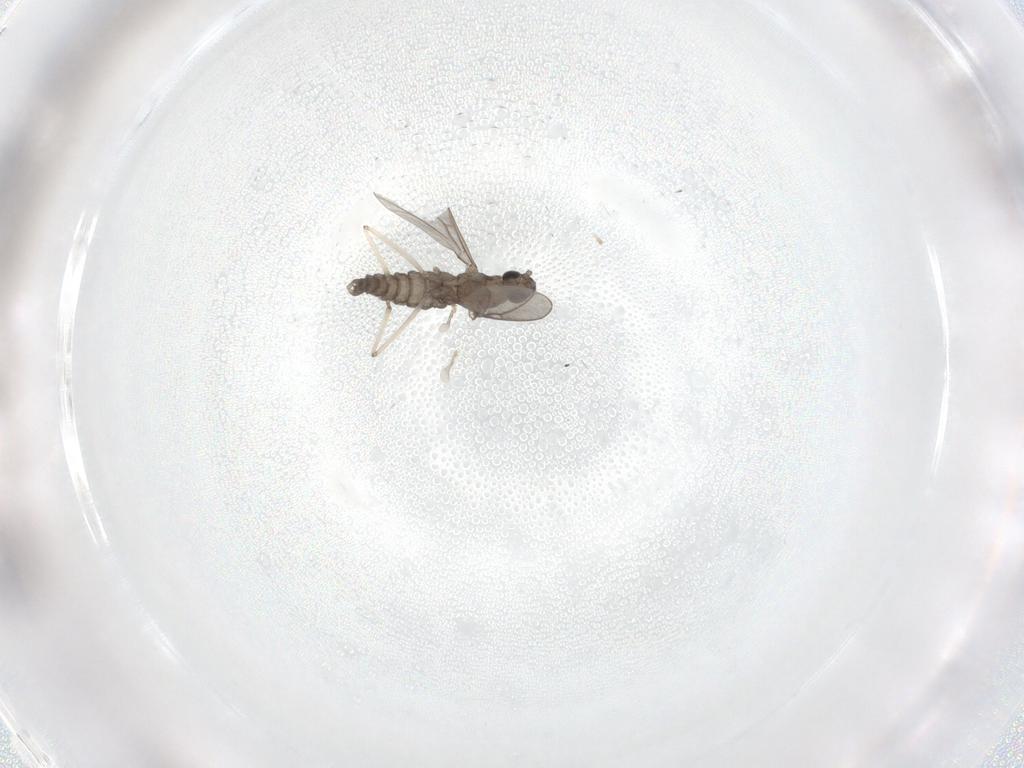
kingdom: Animalia
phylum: Arthropoda
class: Insecta
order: Diptera
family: Cecidomyiidae
